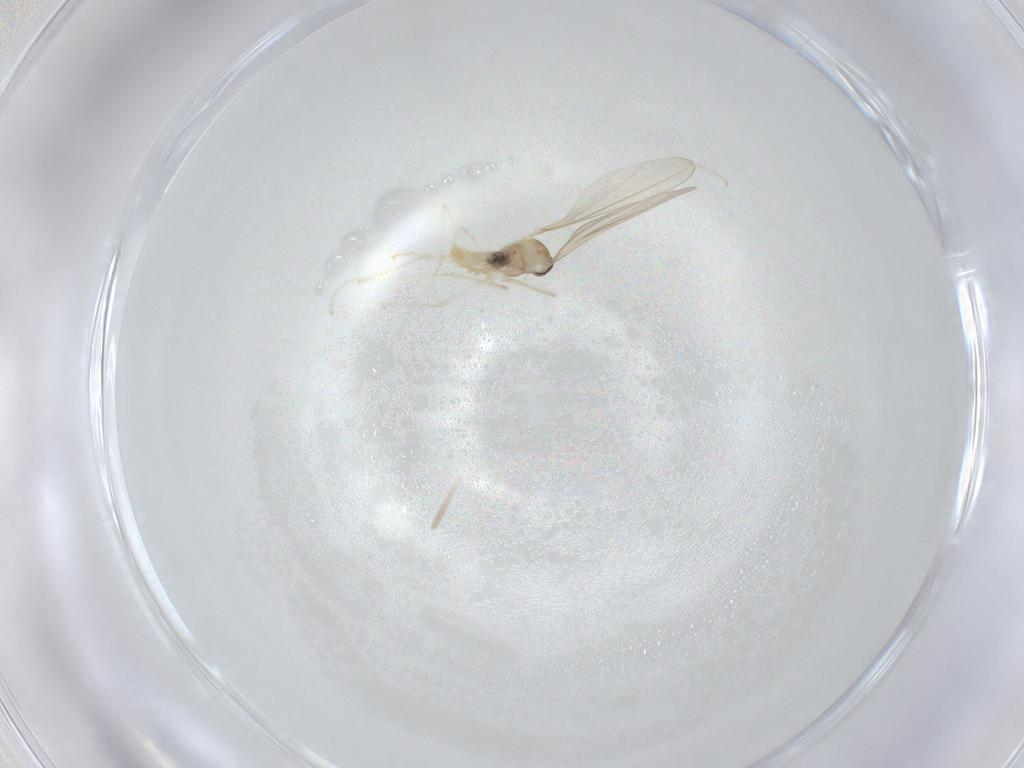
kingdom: Animalia
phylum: Arthropoda
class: Insecta
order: Diptera
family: Cecidomyiidae
